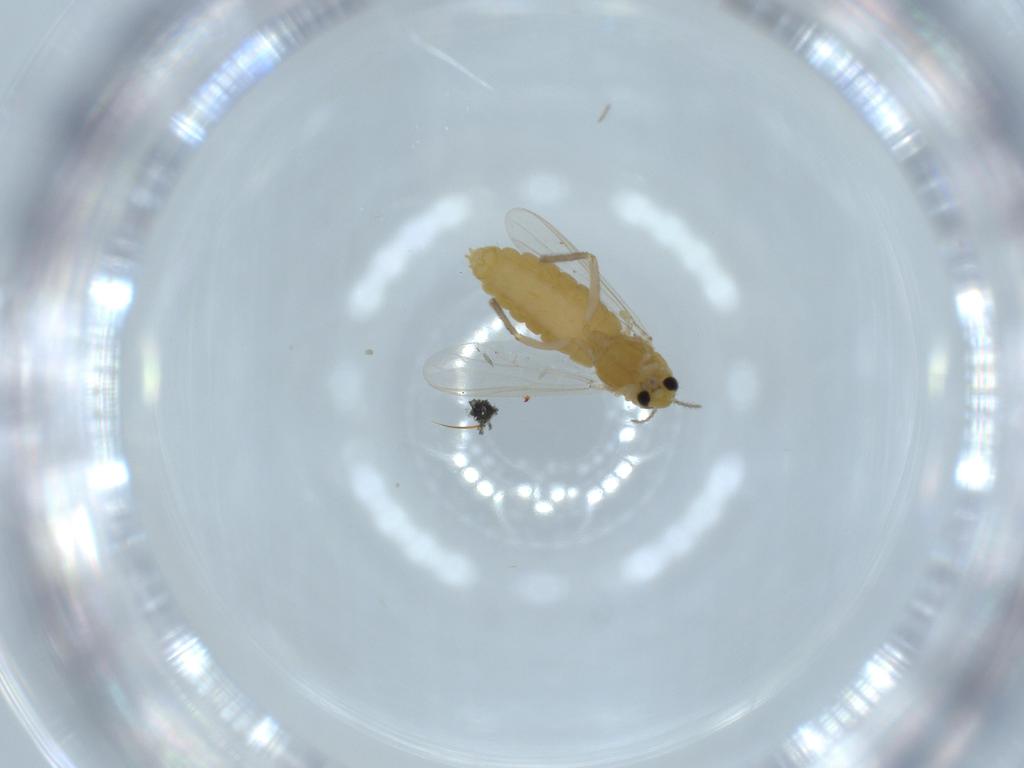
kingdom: Animalia
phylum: Arthropoda
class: Insecta
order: Diptera
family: Chironomidae
